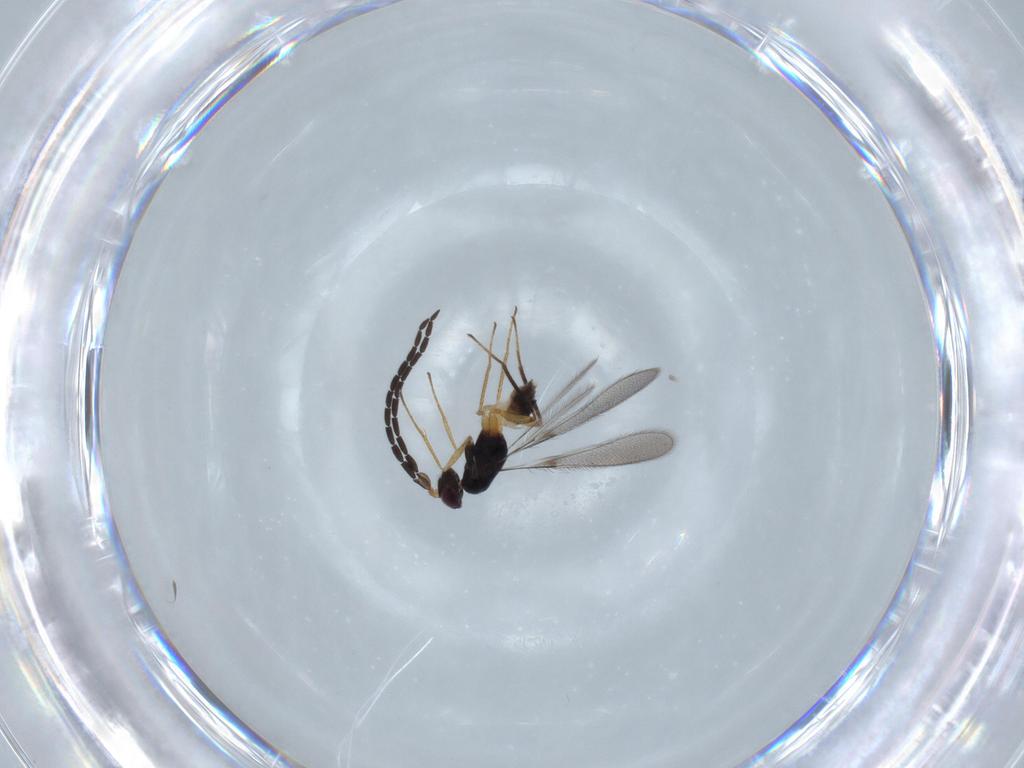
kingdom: Animalia
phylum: Arthropoda
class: Insecta
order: Hymenoptera
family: Mymaridae
